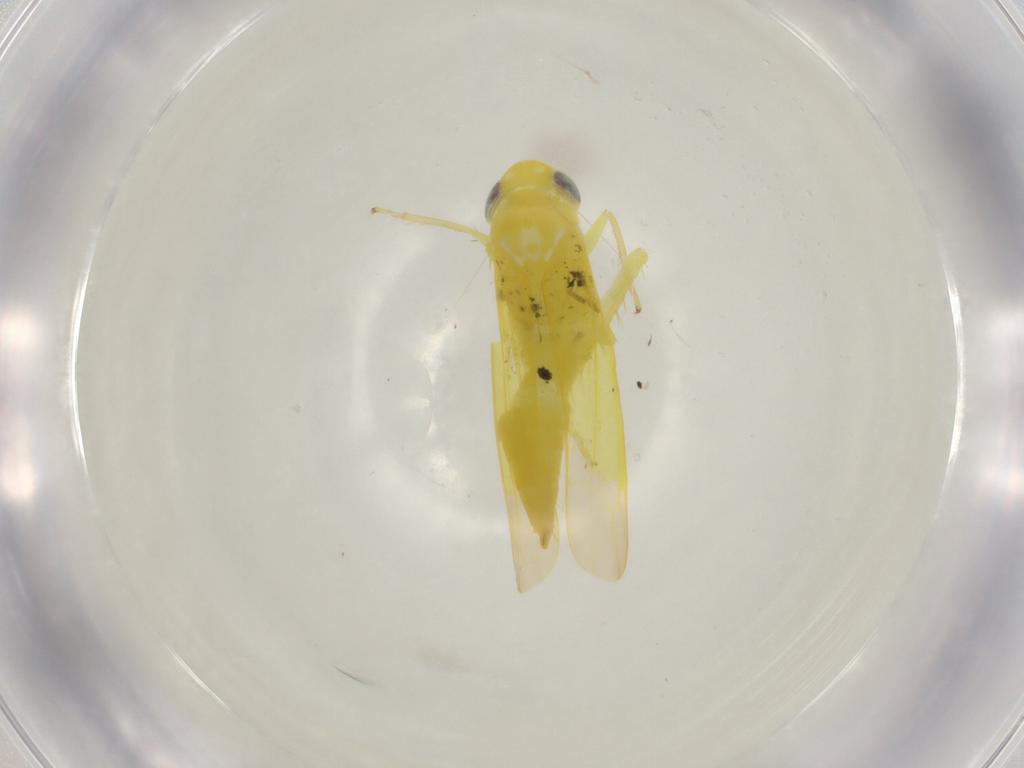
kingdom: Animalia
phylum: Arthropoda
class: Insecta
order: Hemiptera
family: Cicadellidae
